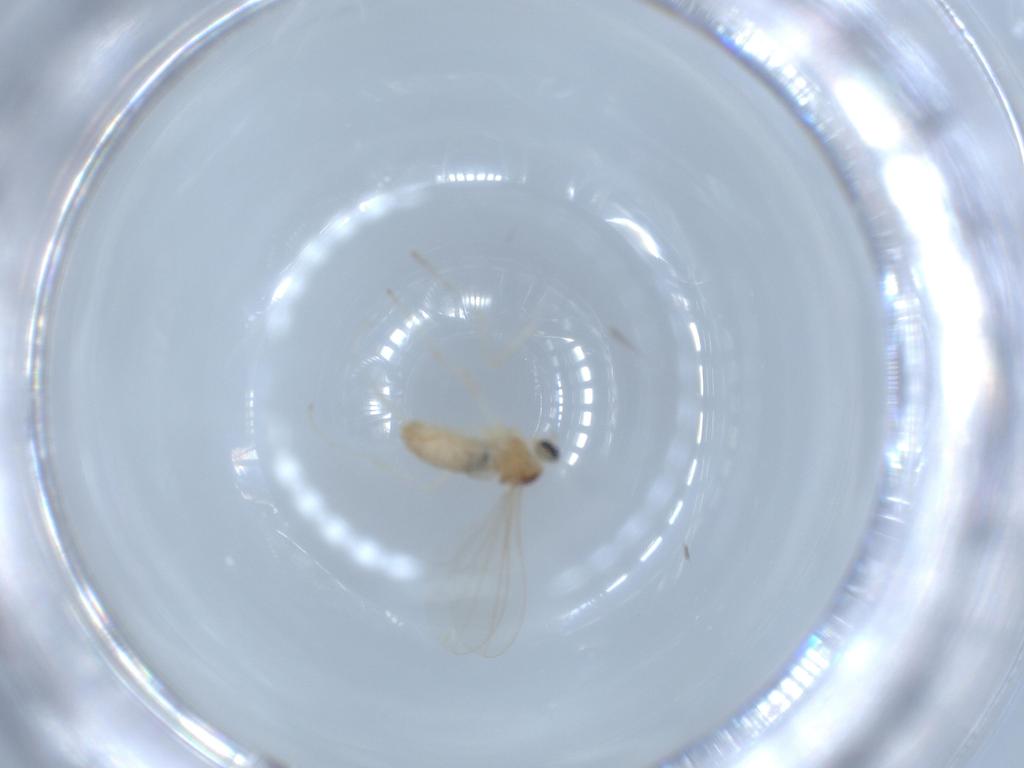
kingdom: Animalia
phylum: Arthropoda
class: Insecta
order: Diptera
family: Cecidomyiidae
